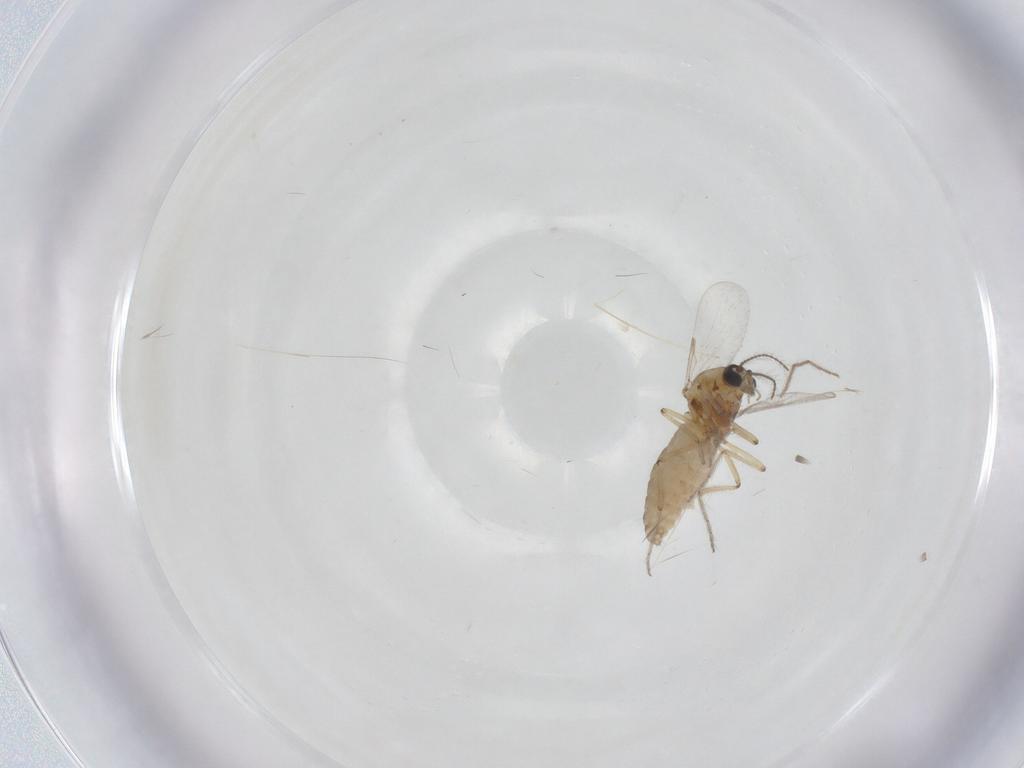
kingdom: Animalia
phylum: Arthropoda
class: Insecta
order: Diptera
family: Ceratopogonidae
